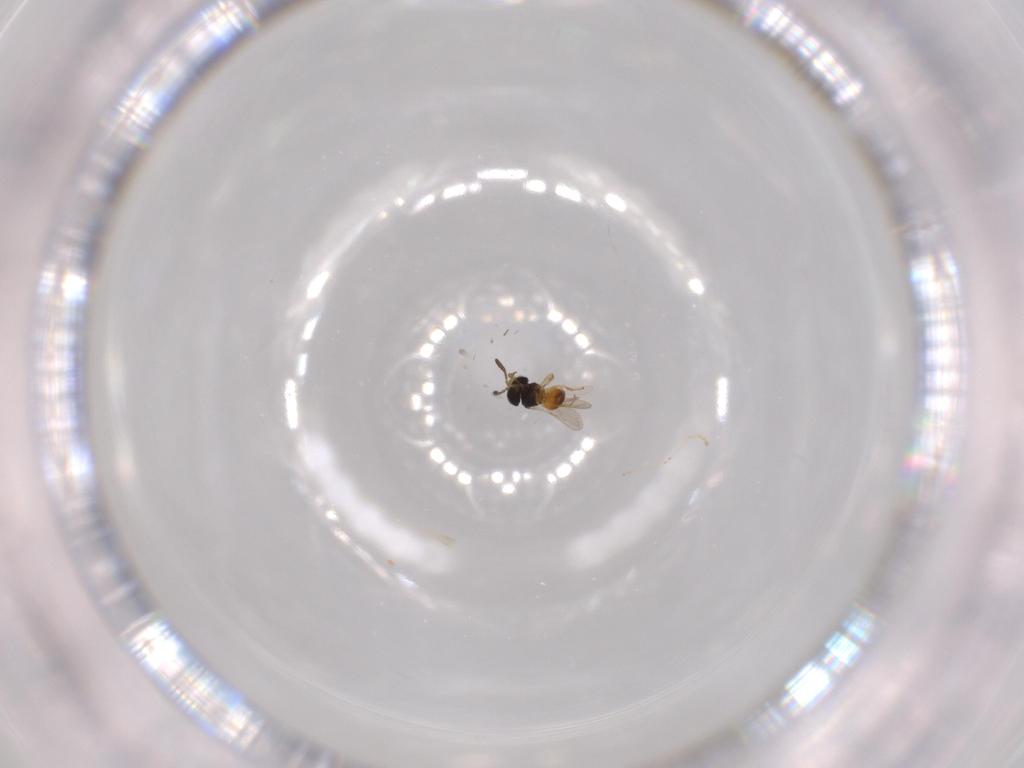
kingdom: Animalia
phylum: Arthropoda
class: Insecta
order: Hymenoptera
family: Scelionidae
